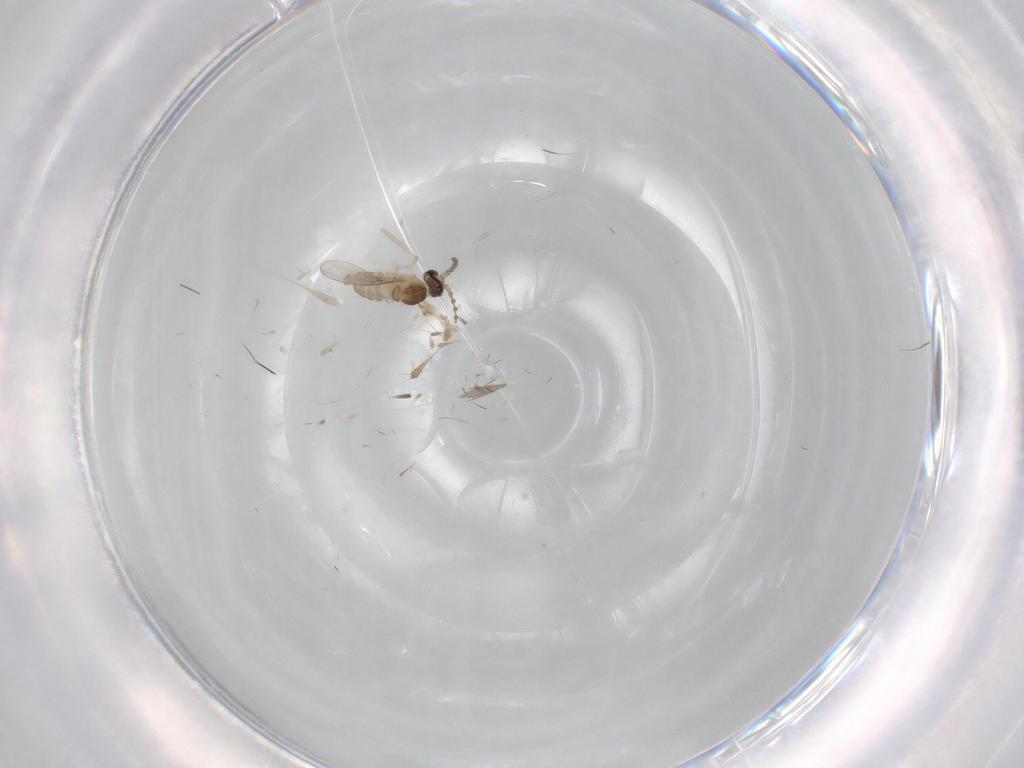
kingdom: Animalia
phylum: Arthropoda
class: Insecta
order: Diptera
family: Cecidomyiidae
